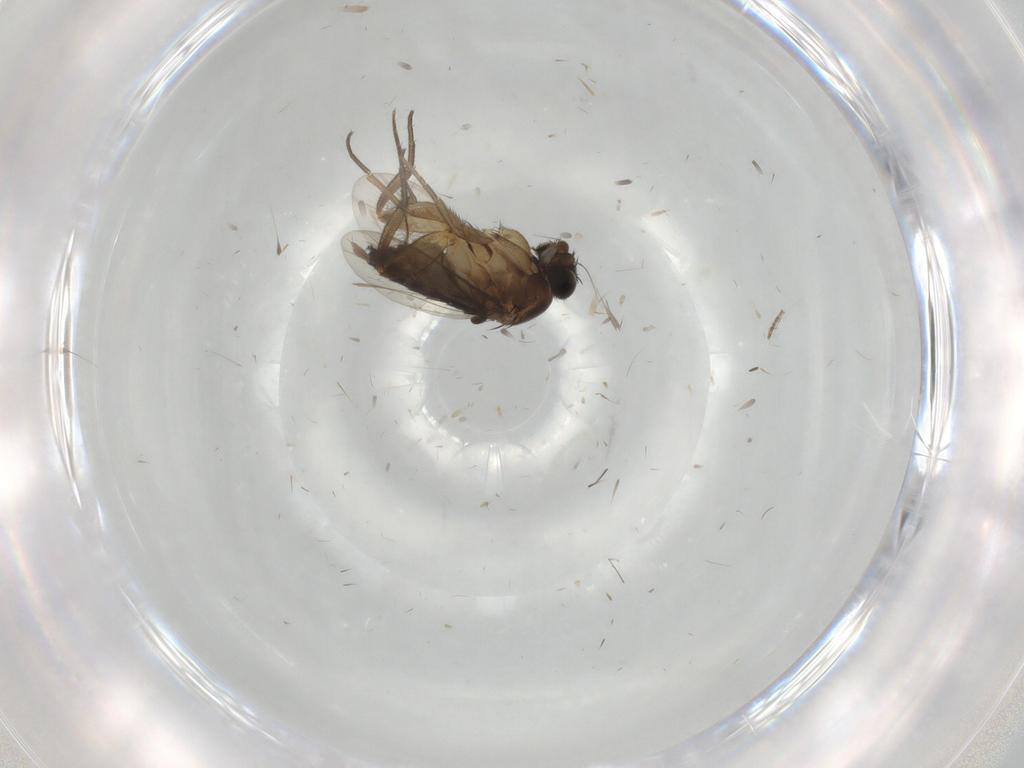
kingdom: Animalia
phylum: Arthropoda
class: Insecta
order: Diptera
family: Phoridae
